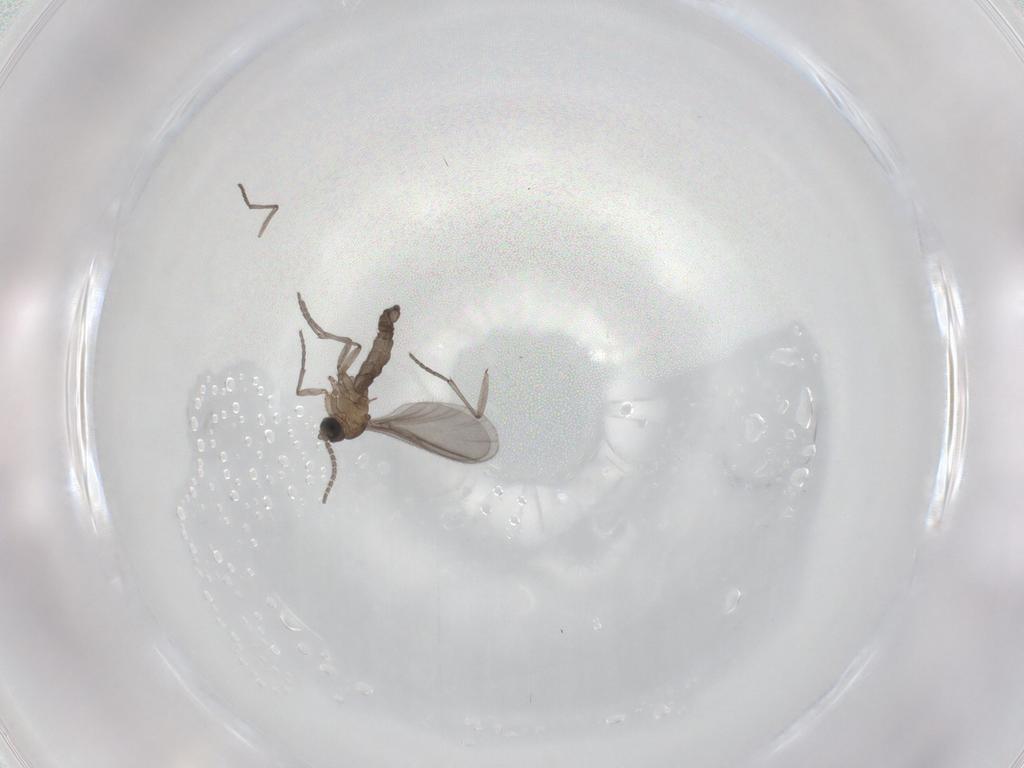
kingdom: Animalia
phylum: Arthropoda
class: Insecta
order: Diptera
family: Sciaridae
